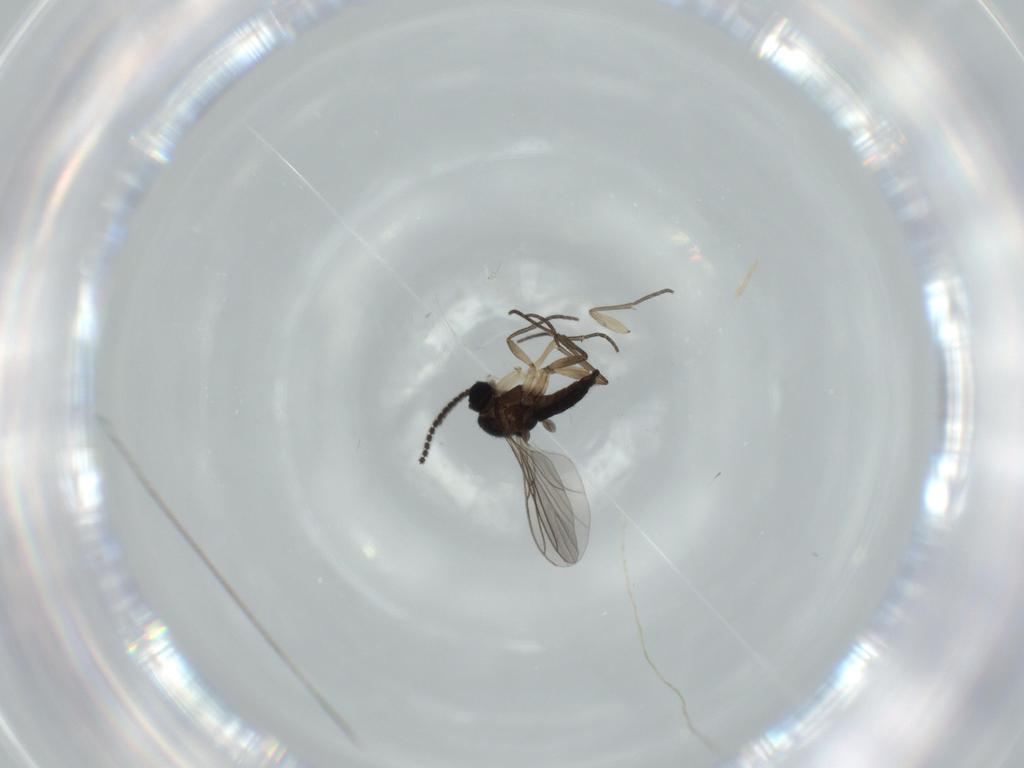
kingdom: Animalia
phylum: Arthropoda
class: Insecta
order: Diptera
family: Sciaridae
